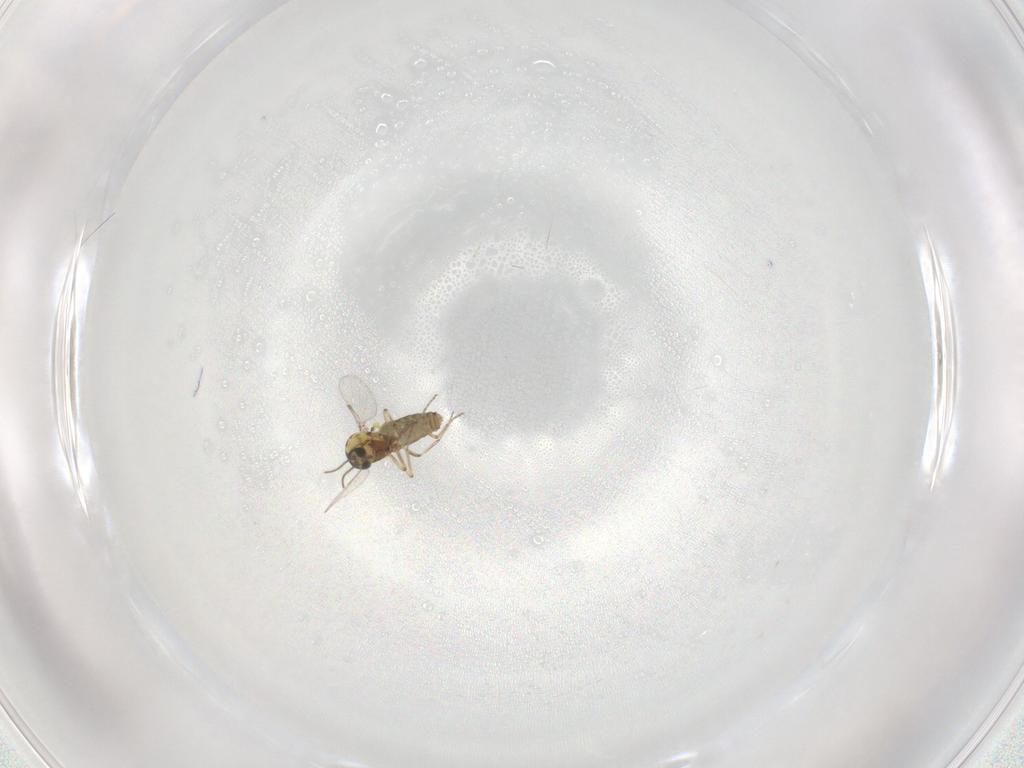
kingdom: Animalia
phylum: Arthropoda
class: Insecta
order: Diptera
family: Ceratopogonidae
